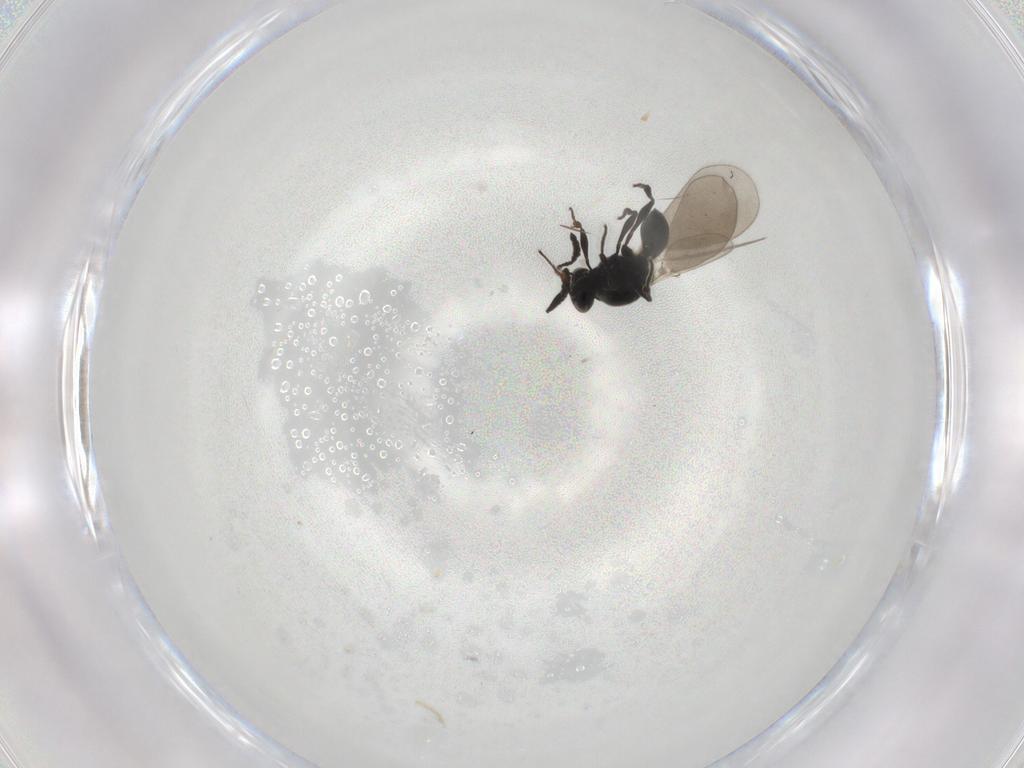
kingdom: Animalia
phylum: Arthropoda
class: Insecta
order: Hymenoptera
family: Platygastridae
